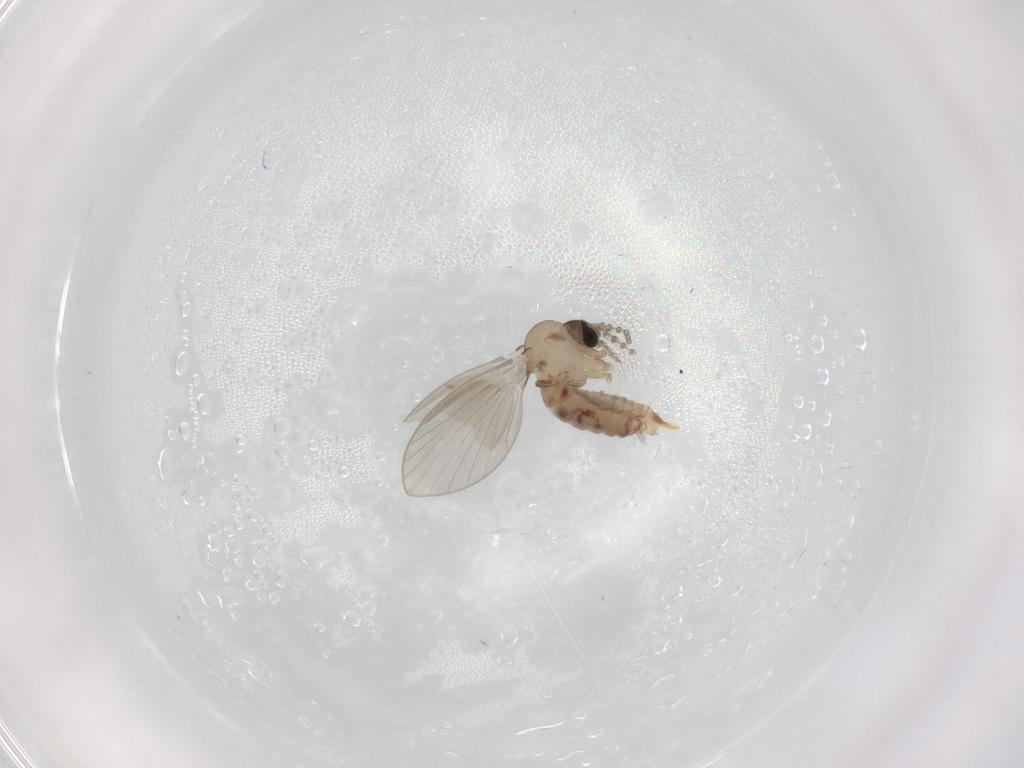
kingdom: Animalia
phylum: Arthropoda
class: Insecta
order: Diptera
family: Psychodidae
